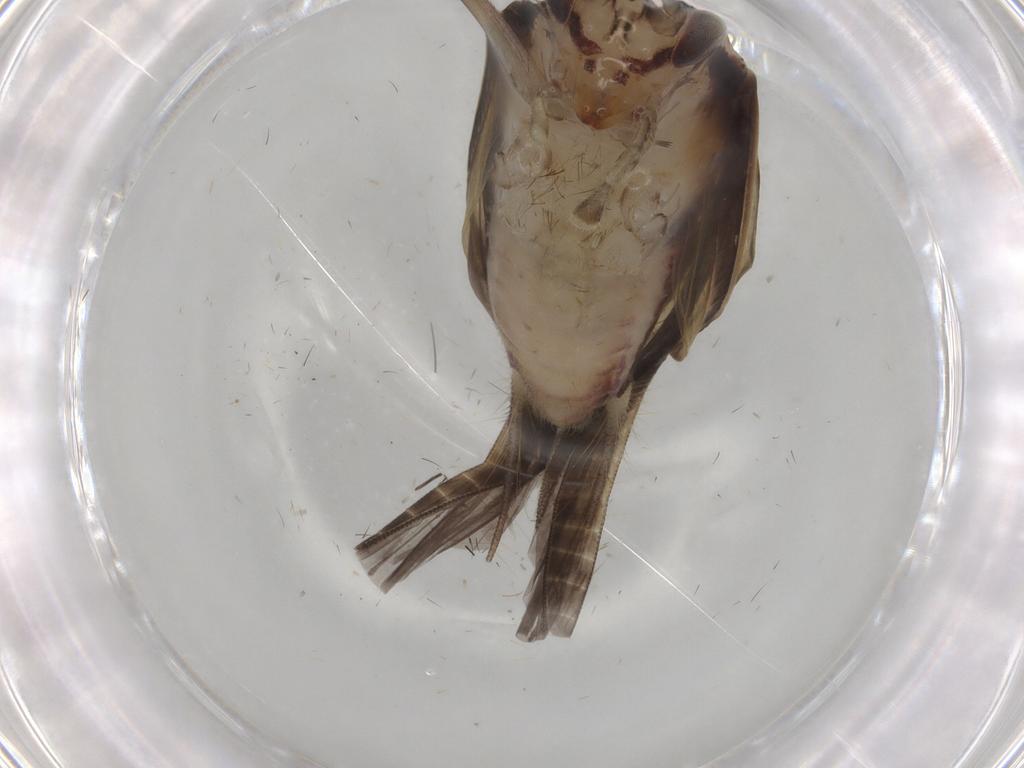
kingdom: Animalia
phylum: Arthropoda
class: Insecta
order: Orthoptera
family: Trigonidiidae
